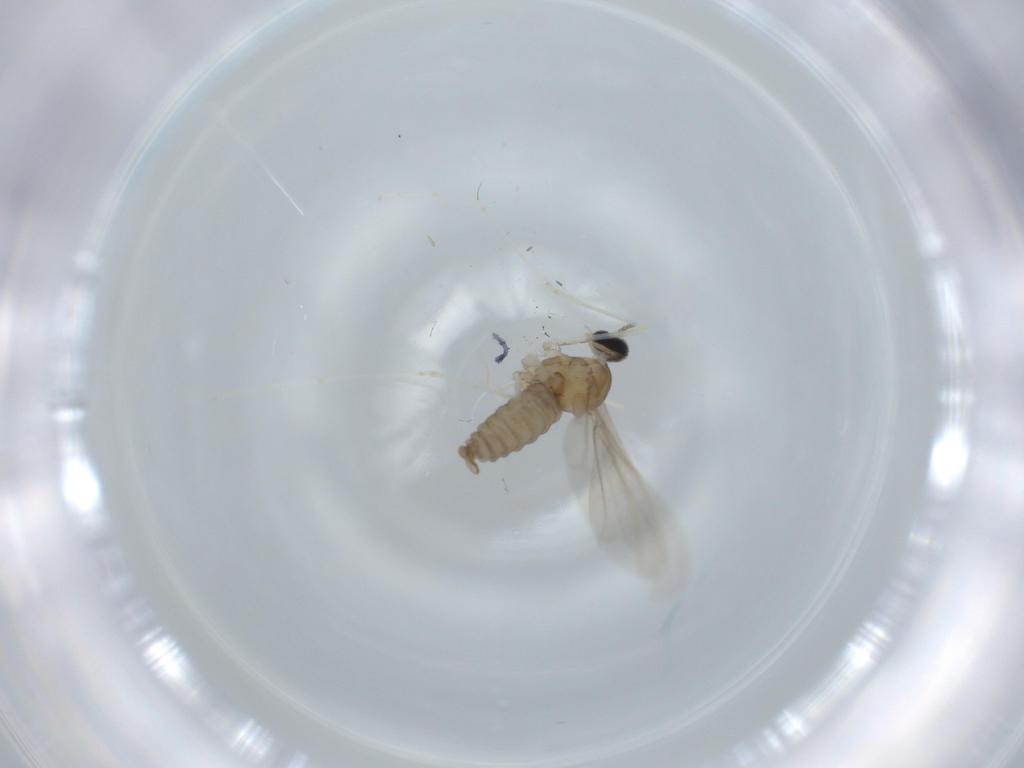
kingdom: Animalia
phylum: Arthropoda
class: Insecta
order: Diptera
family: Cecidomyiidae
